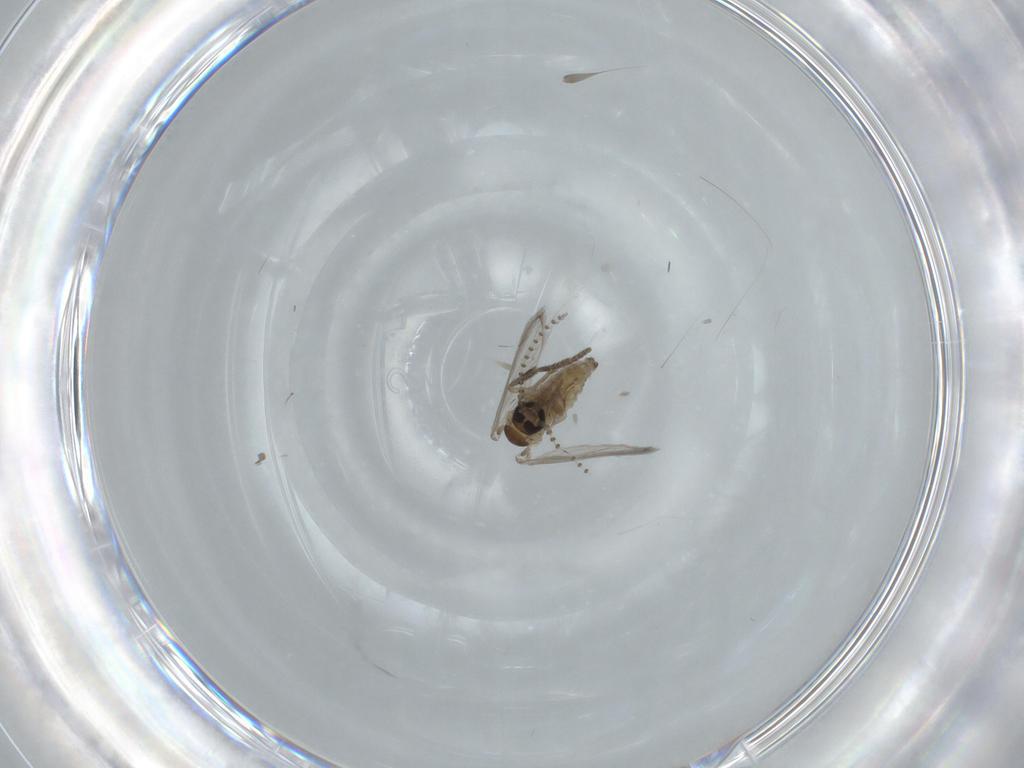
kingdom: Animalia
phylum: Arthropoda
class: Insecta
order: Diptera
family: Psychodidae
